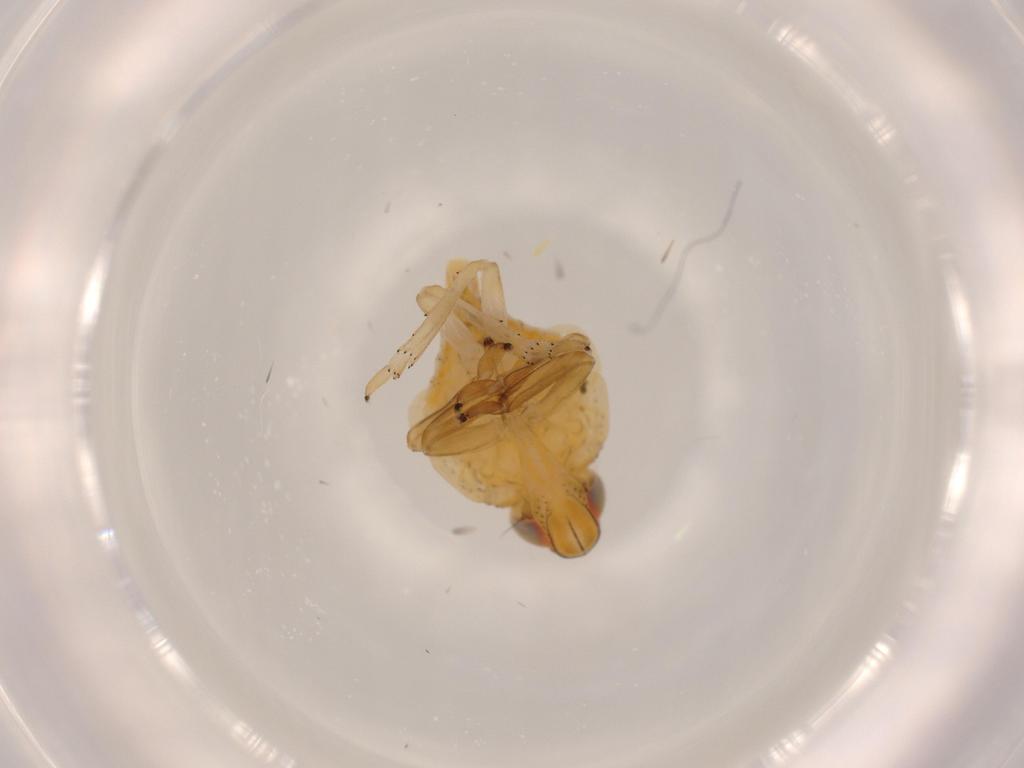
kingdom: Animalia
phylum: Arthropoda
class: Insecta
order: Hemiptera
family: Issidae
